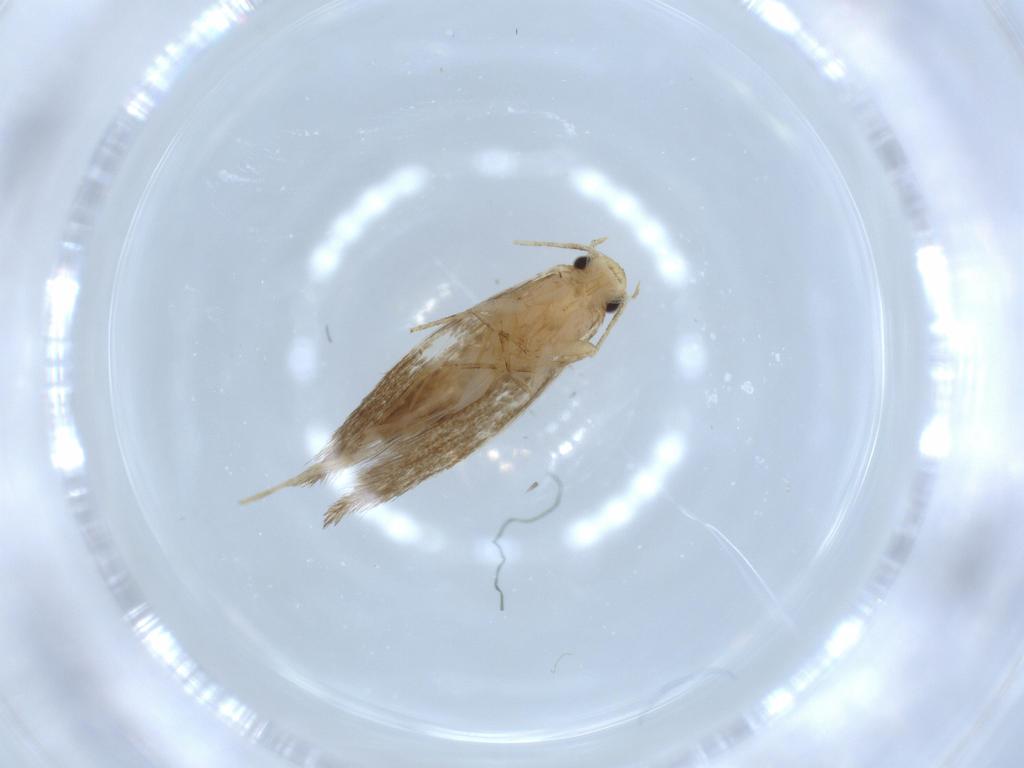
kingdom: Animalia
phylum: Arthropoda
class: Insecta
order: Lepidoptera
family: Tineidae
